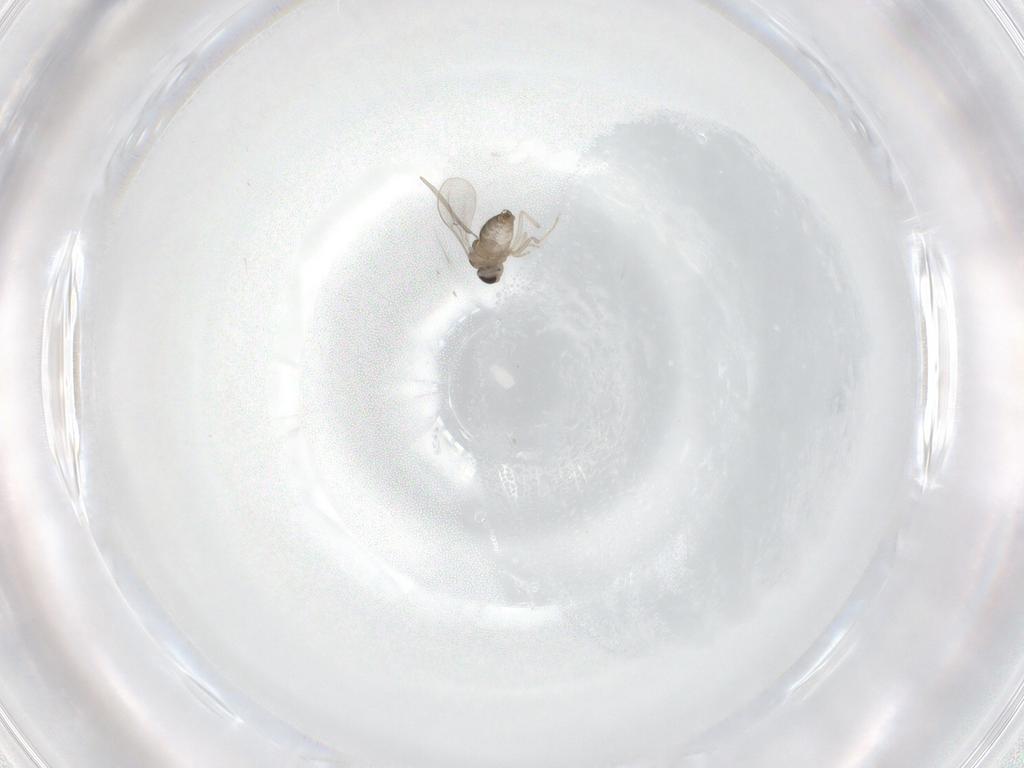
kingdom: Animalia
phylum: Arthropoda
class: Insecta
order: Diptera
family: Cecidomyiidae
